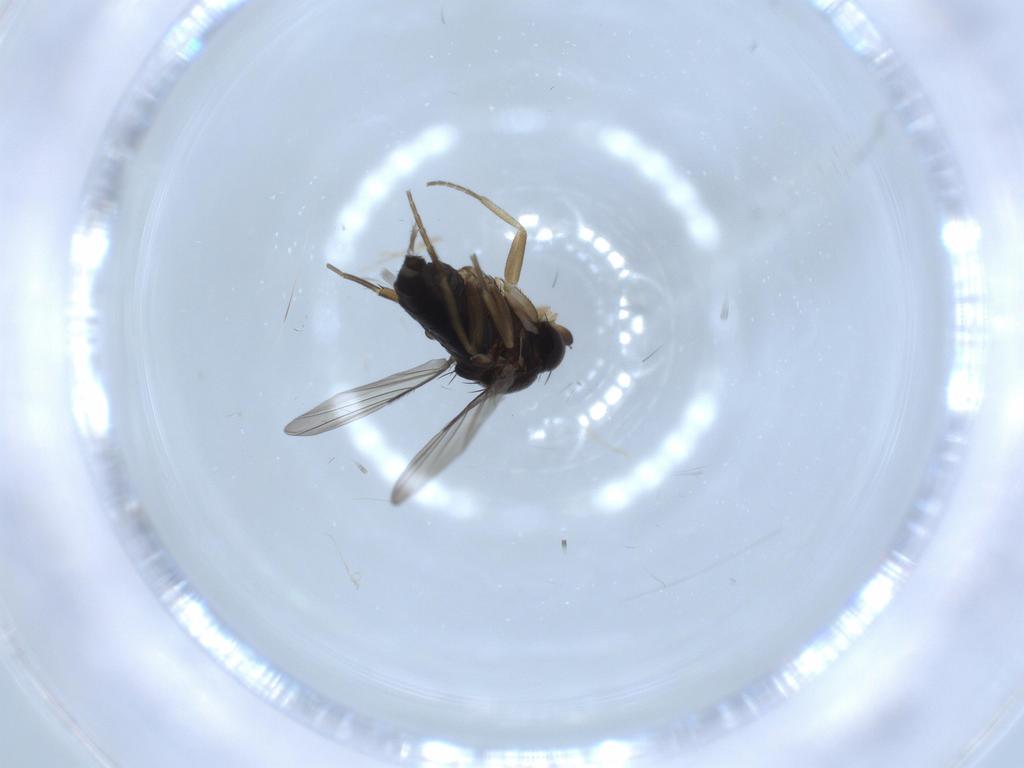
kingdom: Animalia
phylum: Arthropoda
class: Insecta
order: Diptera
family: Phoridae
